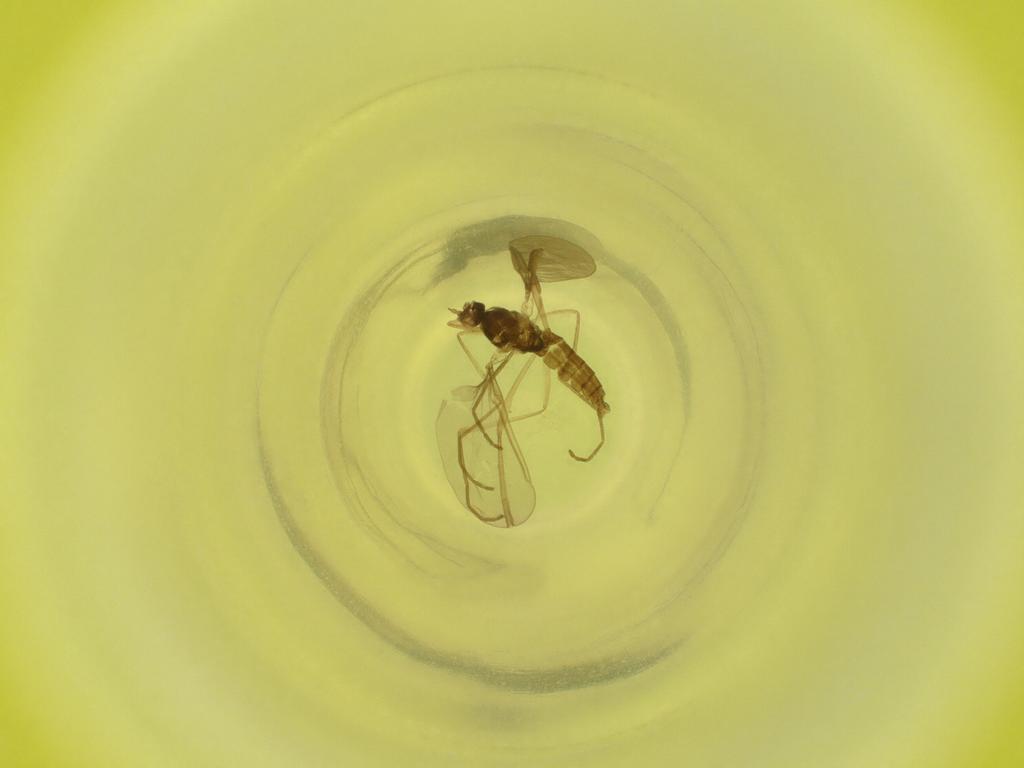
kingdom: Animalia
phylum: Arthropoda
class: Insecta
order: Diptera
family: Cecidomyiidae
